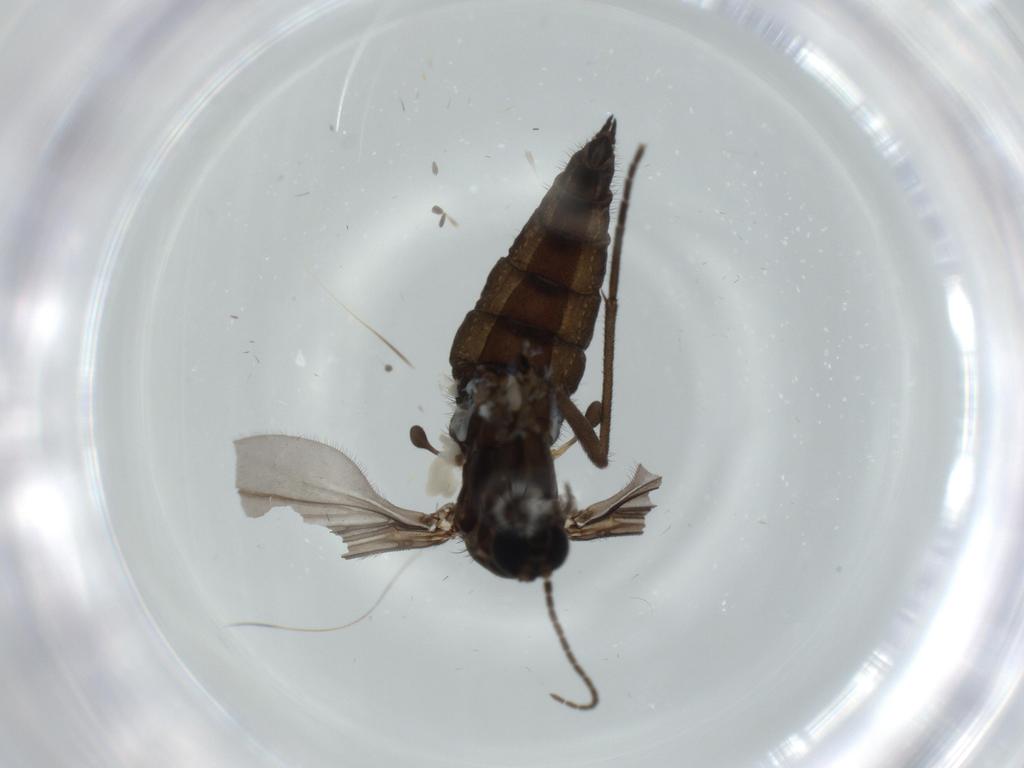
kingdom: Animalia
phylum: Arthropoda
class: Insecta
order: Diptera
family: Sciaridae
